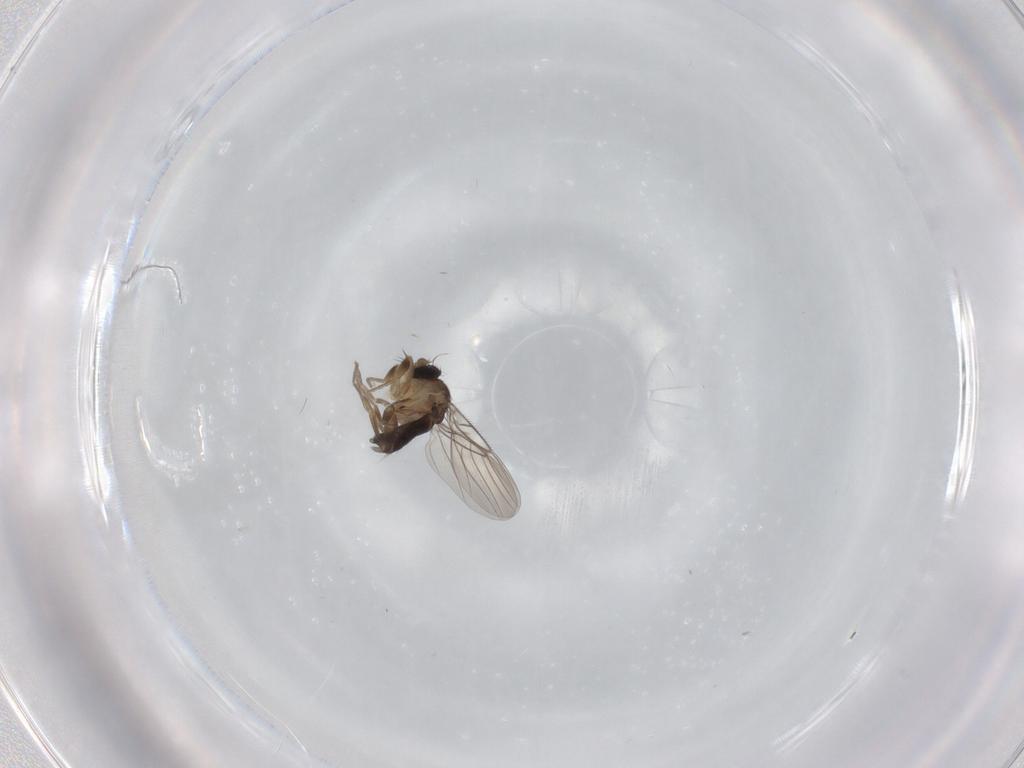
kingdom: Animalia
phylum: Arthropoda
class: Insecta
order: Diptera
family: Phoridae
